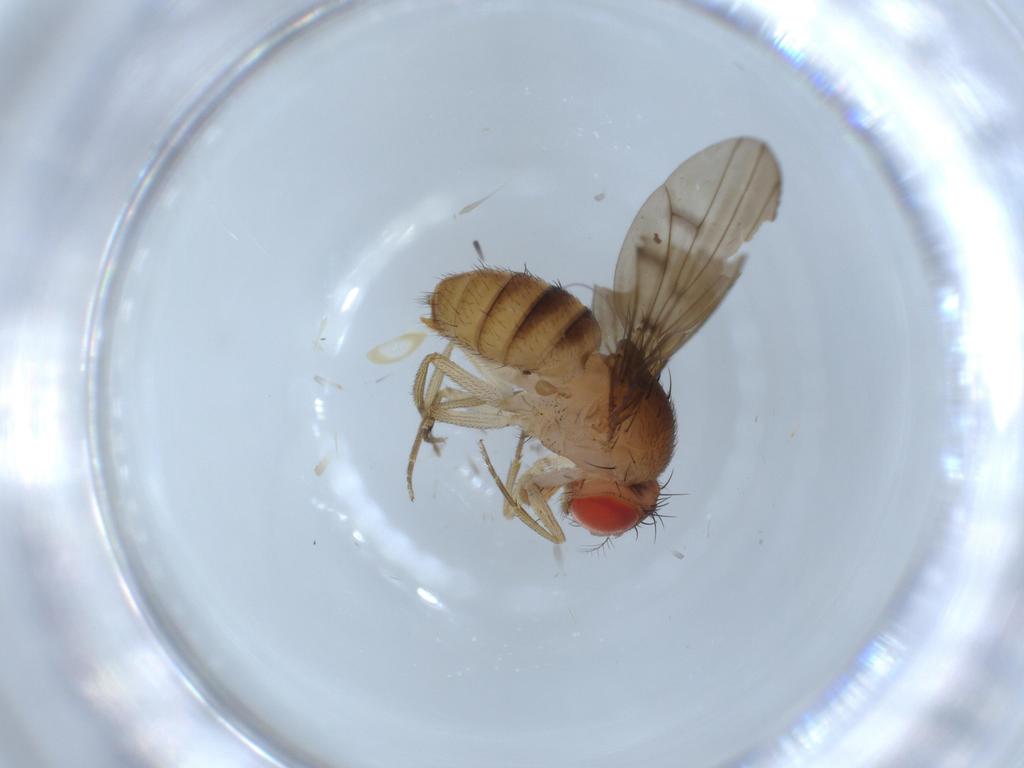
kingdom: Animalia
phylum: Arthropoda
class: Insecta
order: Diptera
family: Drosophilidae
